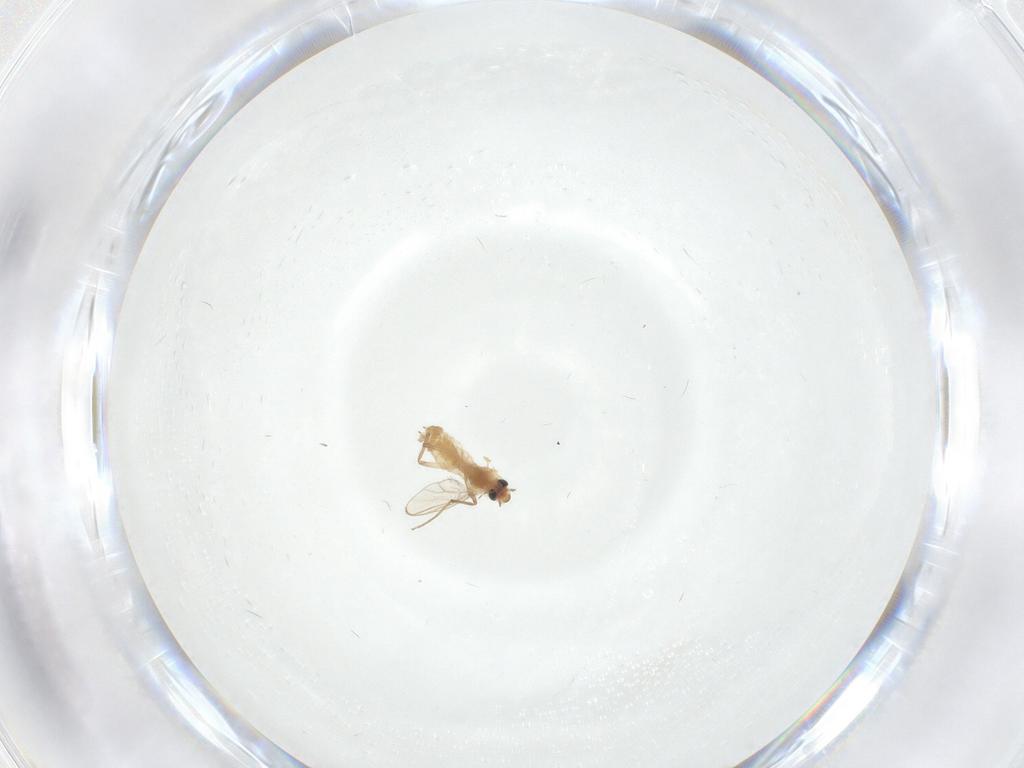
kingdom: Animalia
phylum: Arthropoda
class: Insecta
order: Diptera
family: Chironomidae
